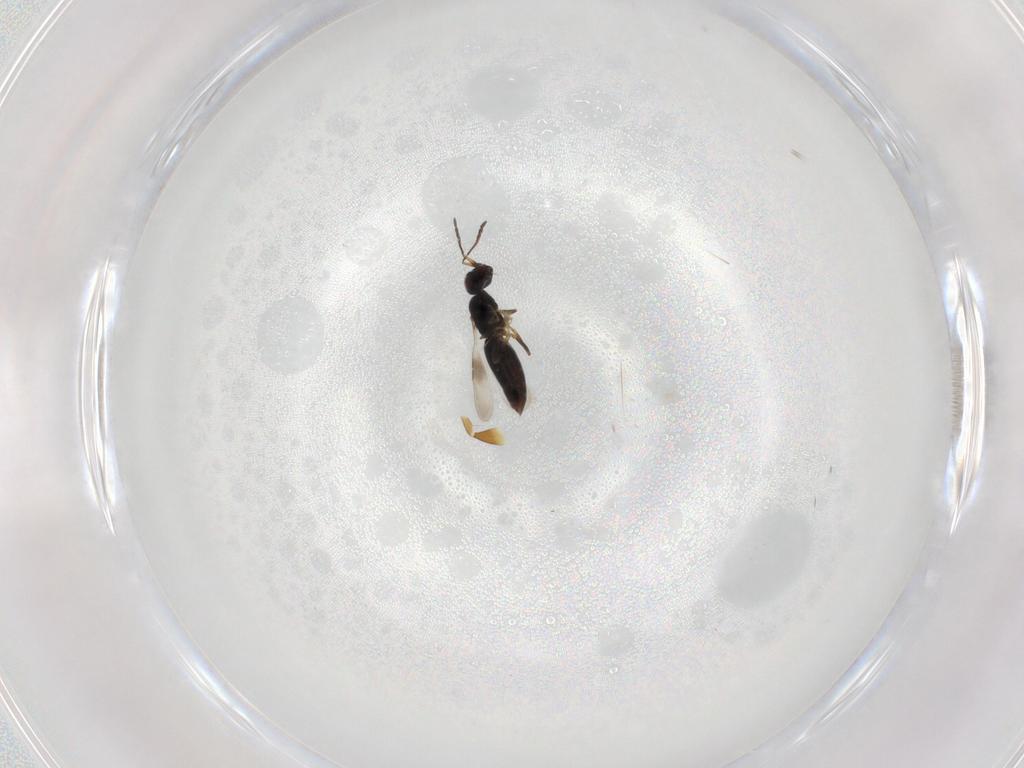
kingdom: Animalia
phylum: Arthropoda
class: Insecta
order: Hymenoptera
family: Ceraphronidae
